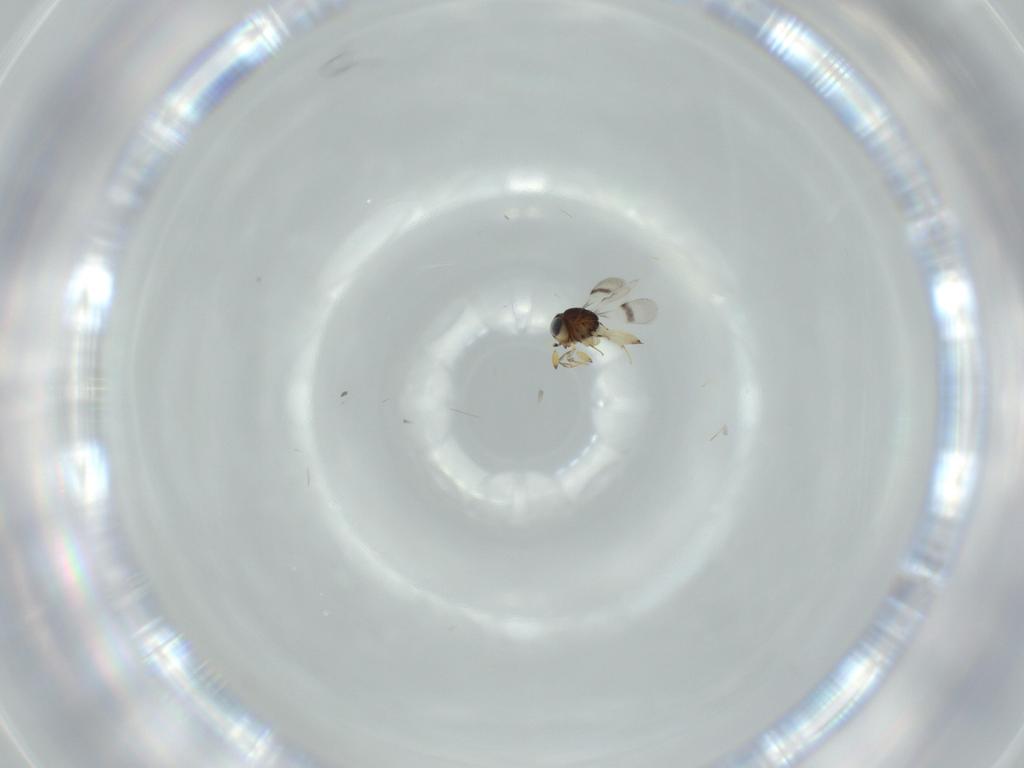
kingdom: Animalia
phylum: Arthropoda
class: Insecta
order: Hymenoptera
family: Scelionidae
